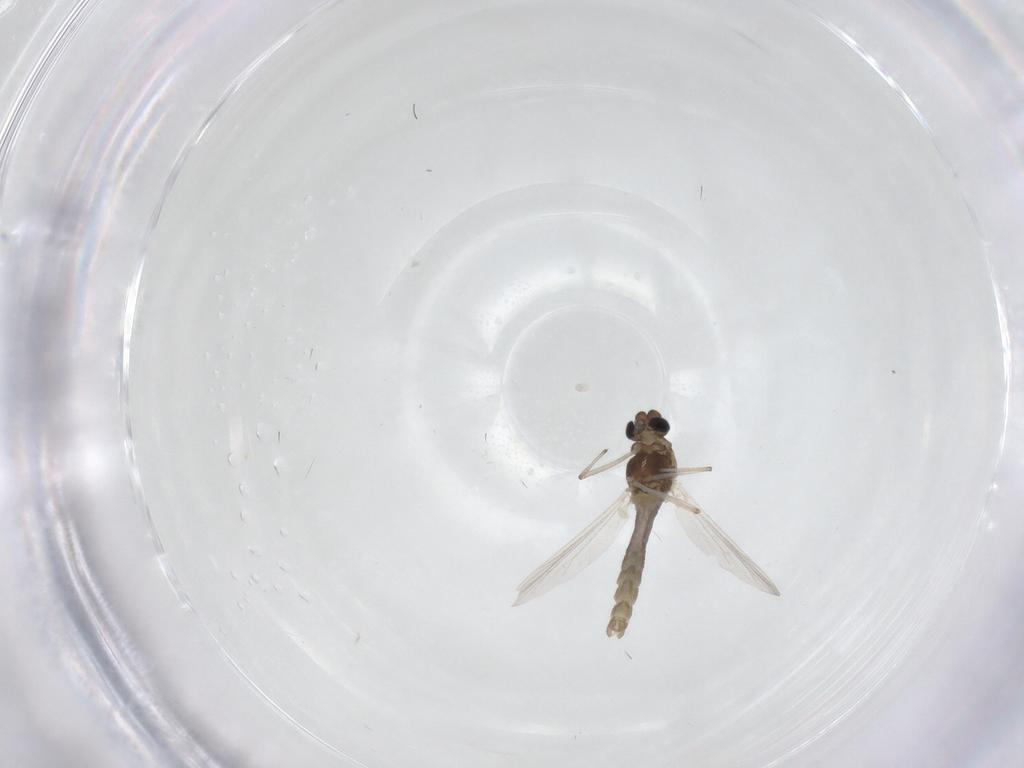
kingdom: Animalia
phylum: Arthropoda
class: Insecta
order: Diptera
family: Chironomidae
